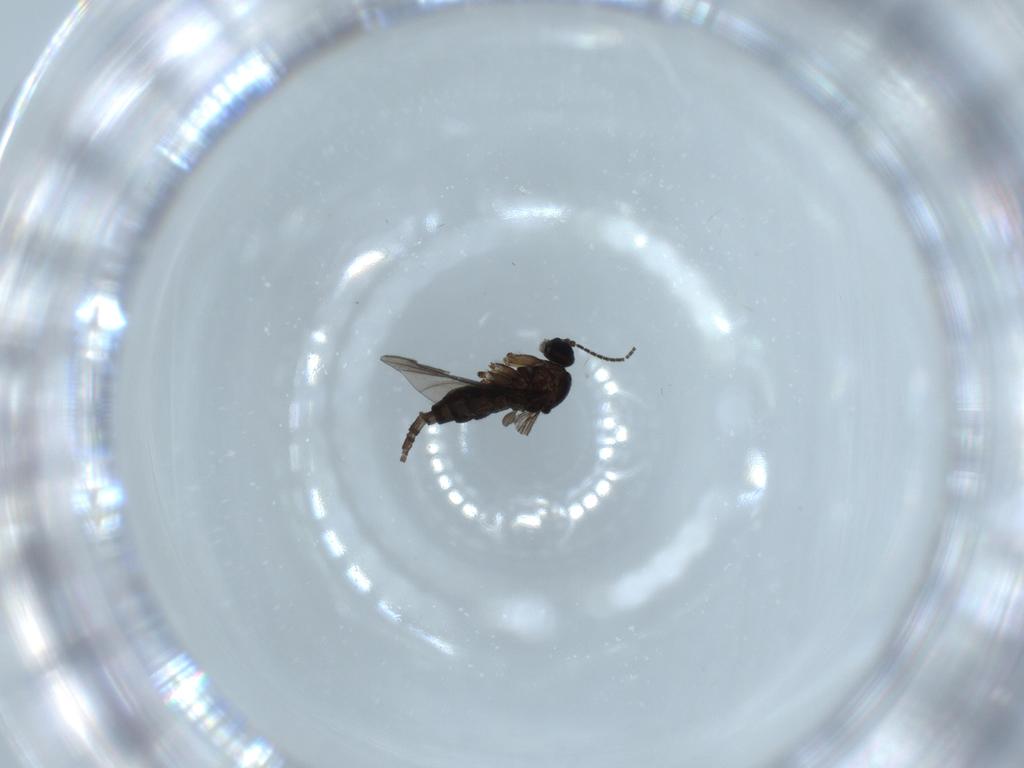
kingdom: Animalia
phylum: Arthropoda
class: Insecta
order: Diptera
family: Sciaridae
